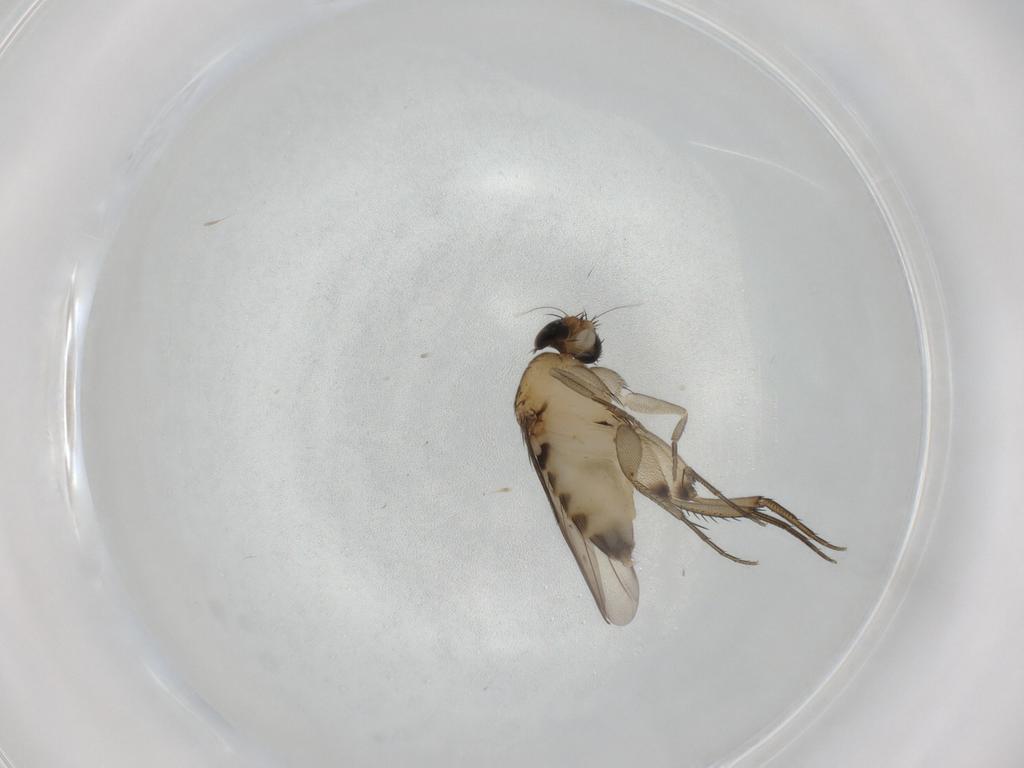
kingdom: Animalia
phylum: Arthropoda
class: Insecta
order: Diptera
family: Phoridae
